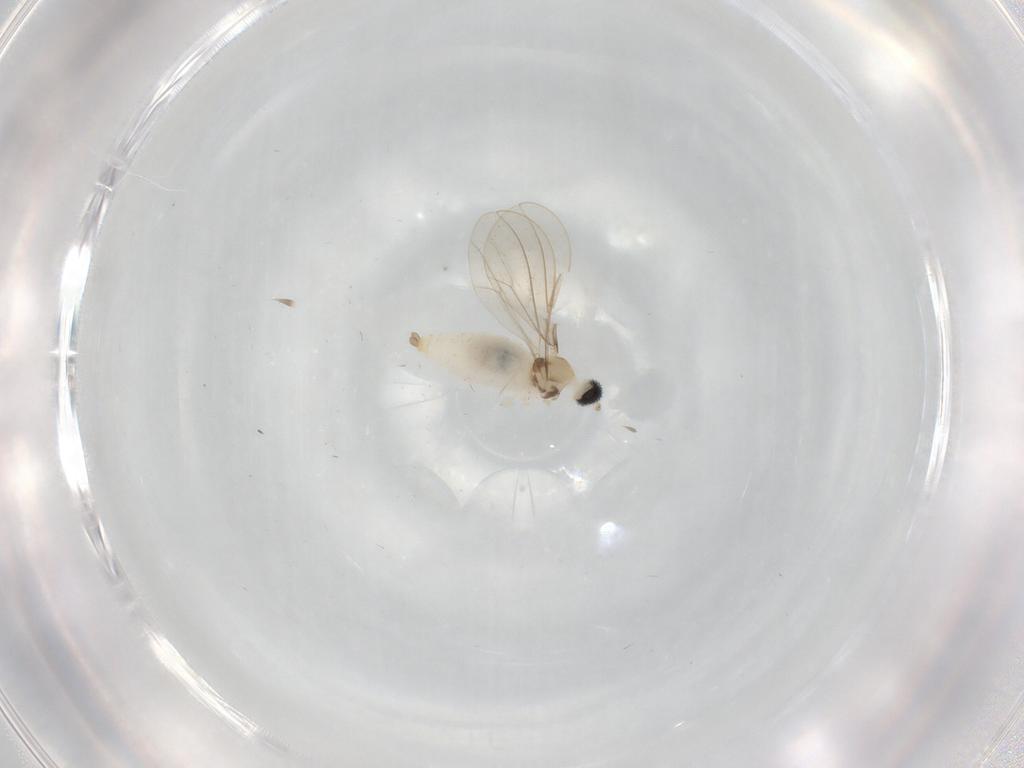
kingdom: Animalia
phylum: Arthropoda
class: Insecta
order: Diptera
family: Cecidomyiidae
